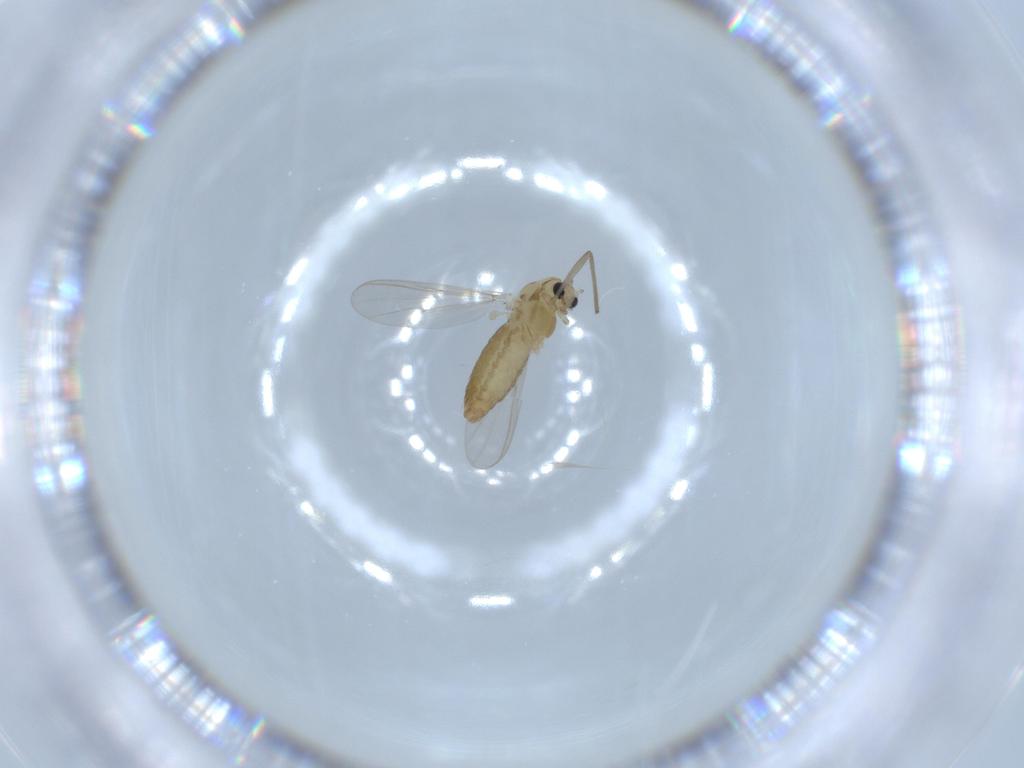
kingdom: Animalia
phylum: Arthropoda
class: Insecta
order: Diptera
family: Chironomidae
